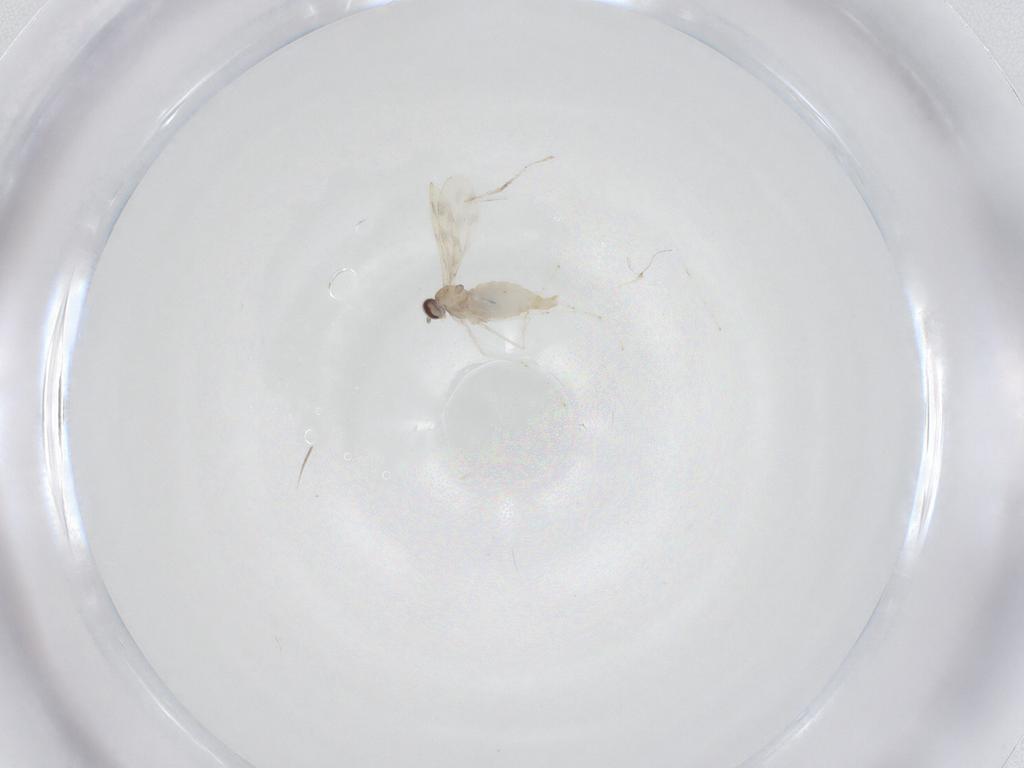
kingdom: Animalia
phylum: Arthropoda
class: Insecta
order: Diptera
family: Cecidomyiidae
